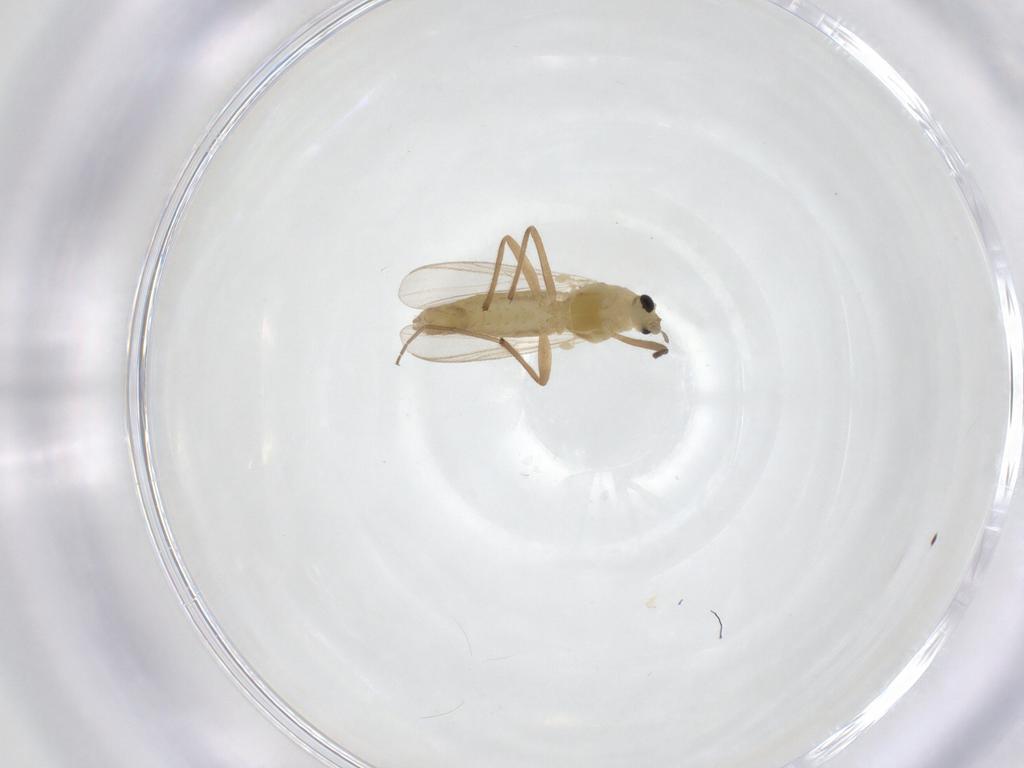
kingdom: Animalia
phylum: Arthropoda
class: Insecta
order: Diptera
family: Chironomidae
